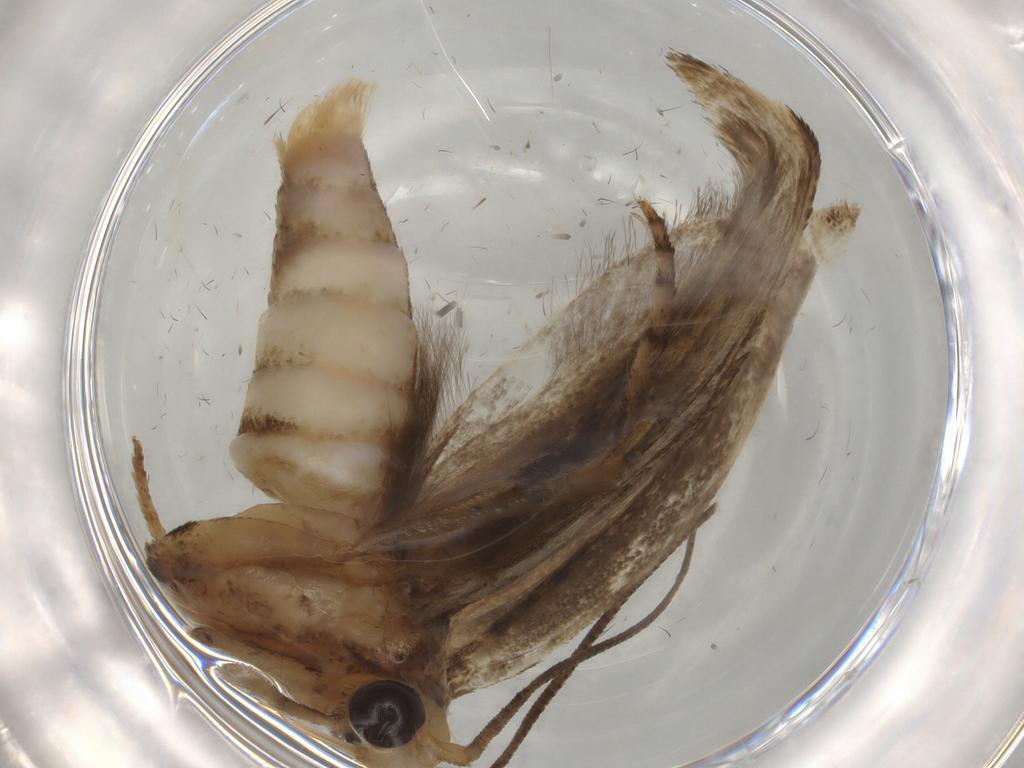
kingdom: Animalia
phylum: Arthropoda
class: Insecta
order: Lepidoptera
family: Yponomeutidae
